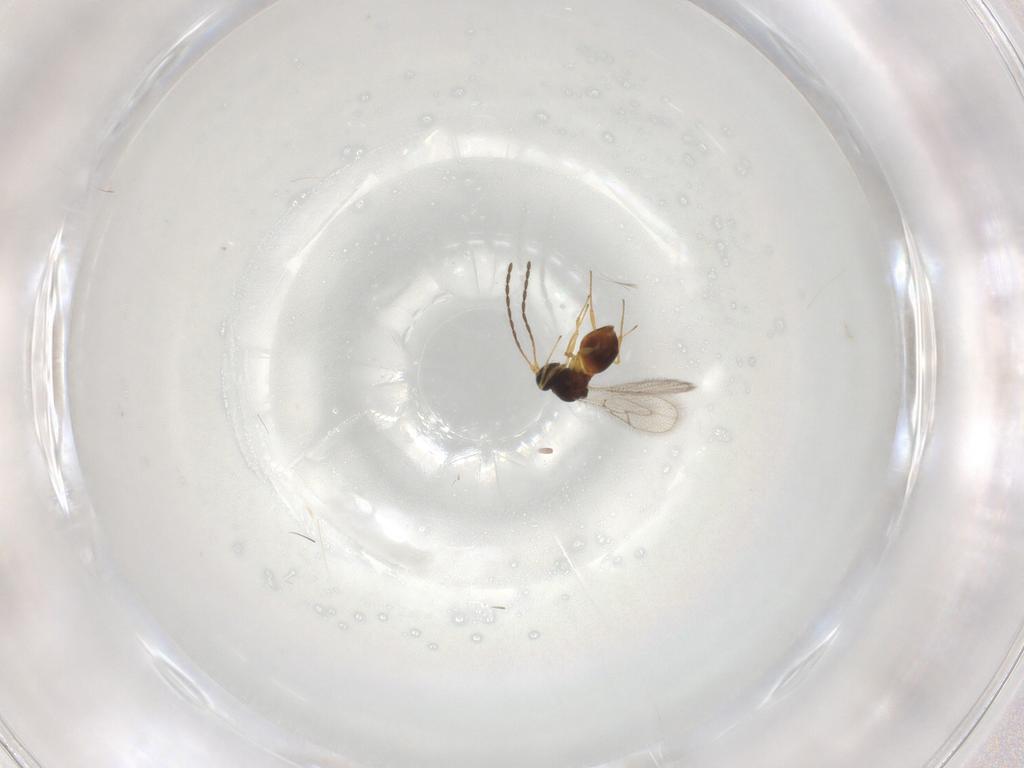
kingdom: Animalia
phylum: Arthropoda
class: Insecta
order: Hymenoptera
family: Figitidae
